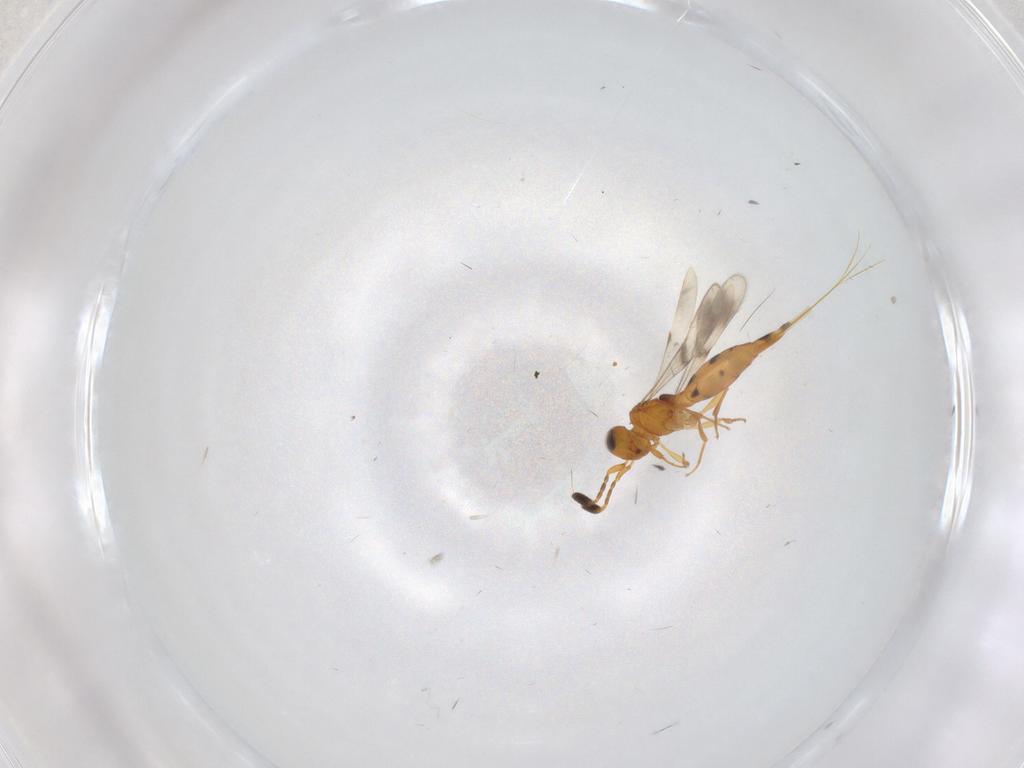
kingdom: Animalia
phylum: Arthropoda
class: Insecta
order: Hymenoptera
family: Scelionidae
